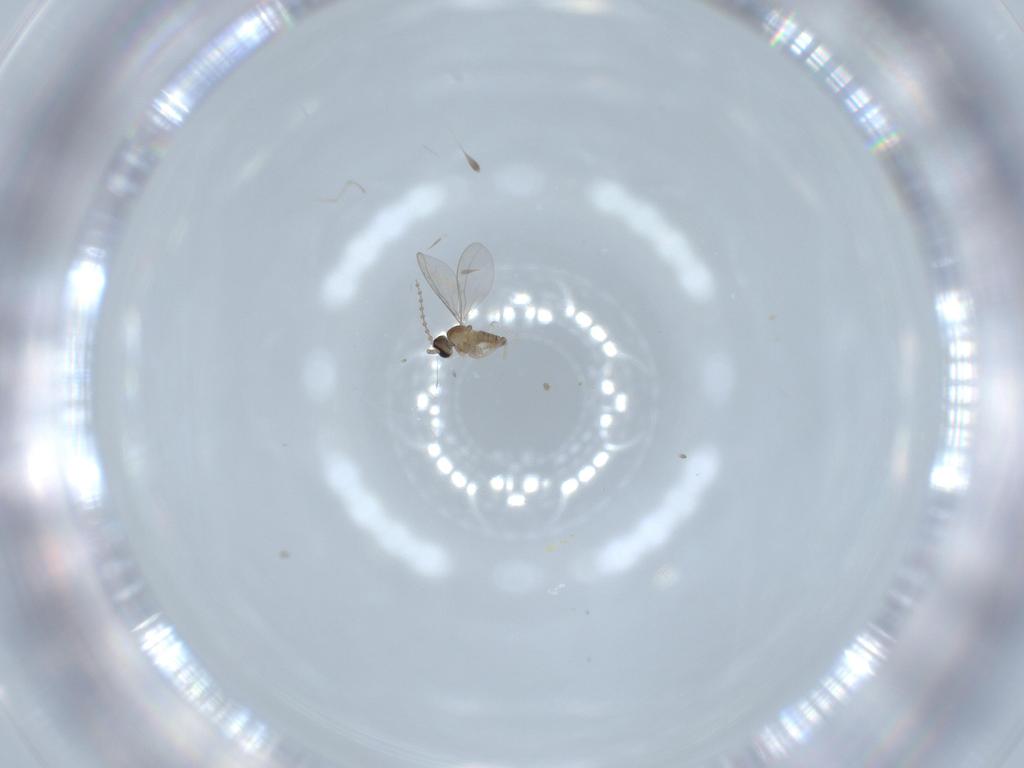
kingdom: Animalia
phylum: Arthropoda
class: Insecta
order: Diptera
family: Cecidomyiidae
